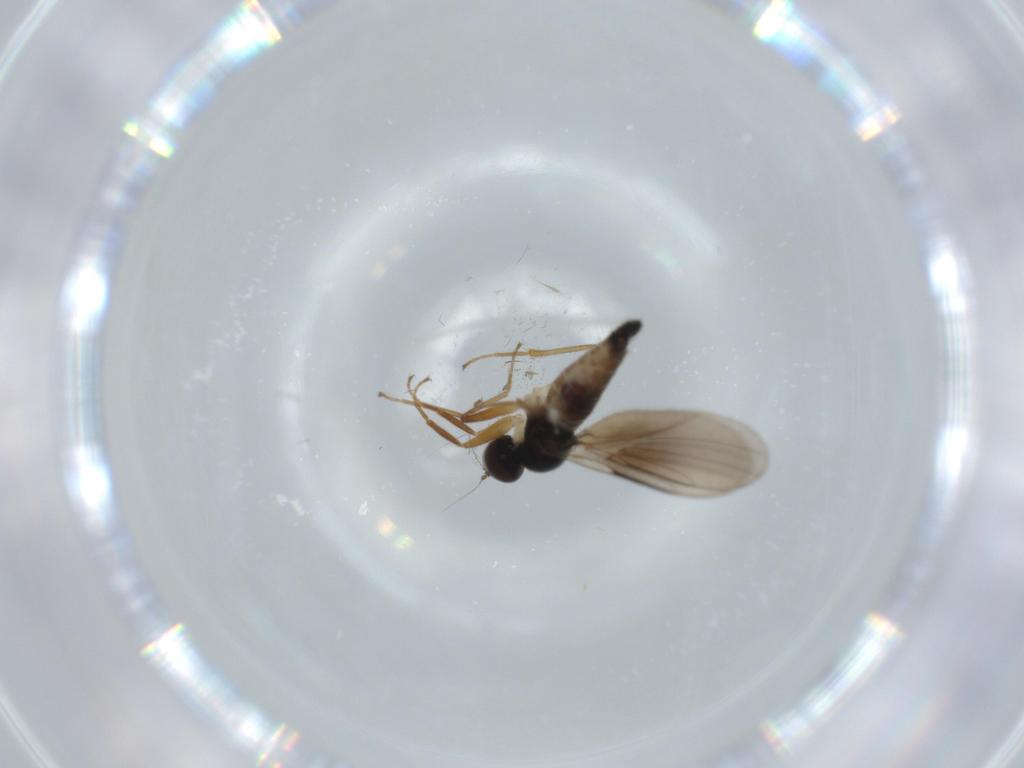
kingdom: Animalia
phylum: Arthropoda
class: Insecta
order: Diptera
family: Hybotidae
